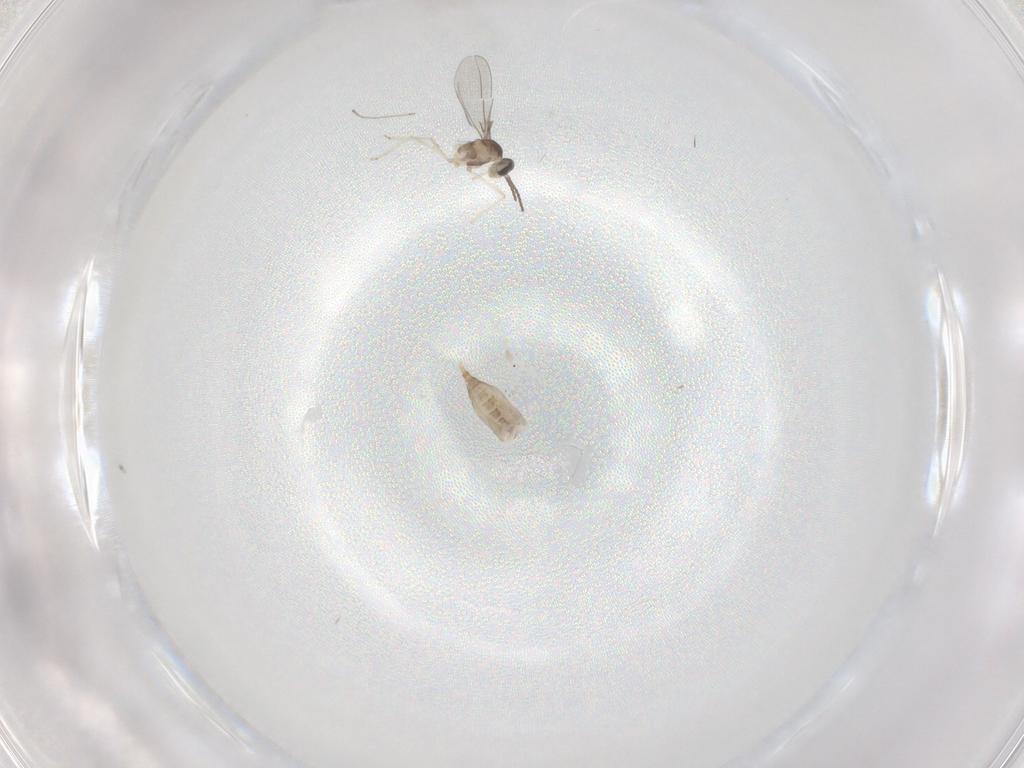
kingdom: Animalia
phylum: Arthropoda
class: Insecta
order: Diptera
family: Cecidomyiidae
